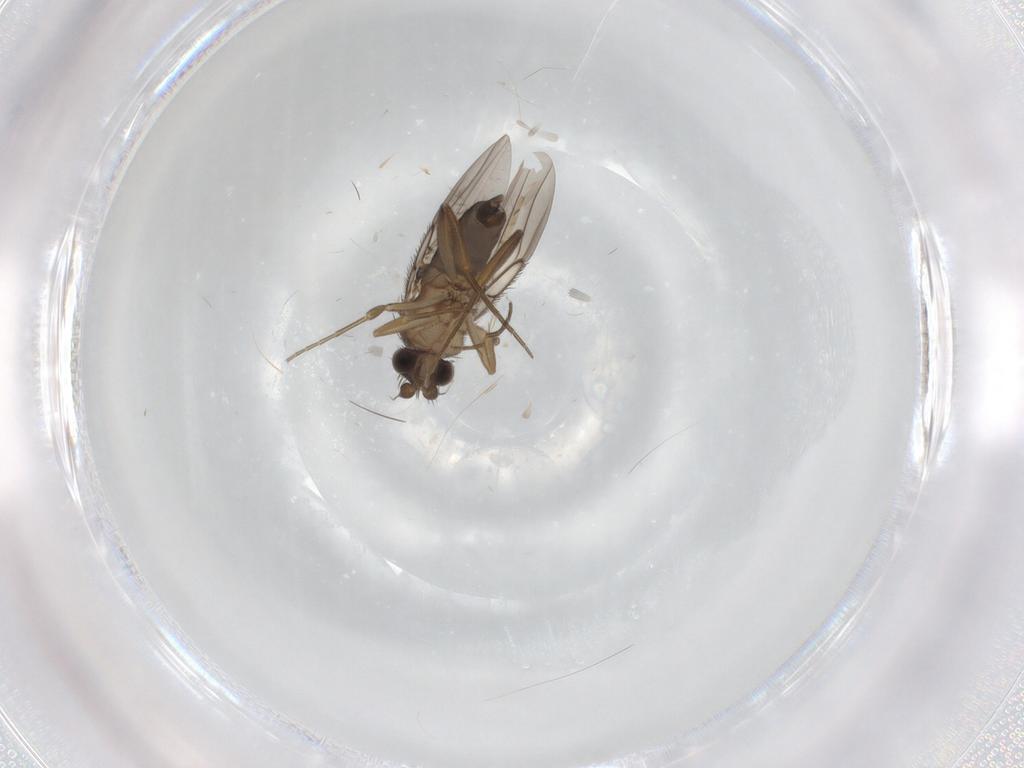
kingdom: Animalia
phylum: Arthropoda
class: Insecta
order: Diptera
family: Phoridae
